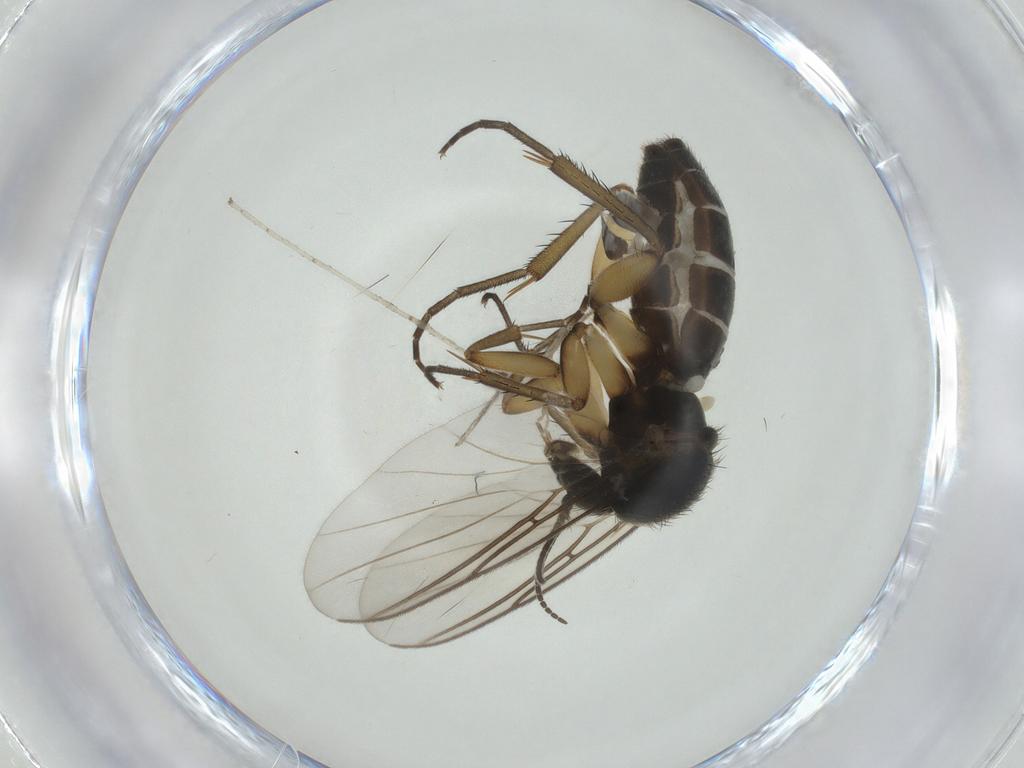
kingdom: Animalia
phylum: Arthropoda
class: Insecta
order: Diptera
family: Mycetophilidae
